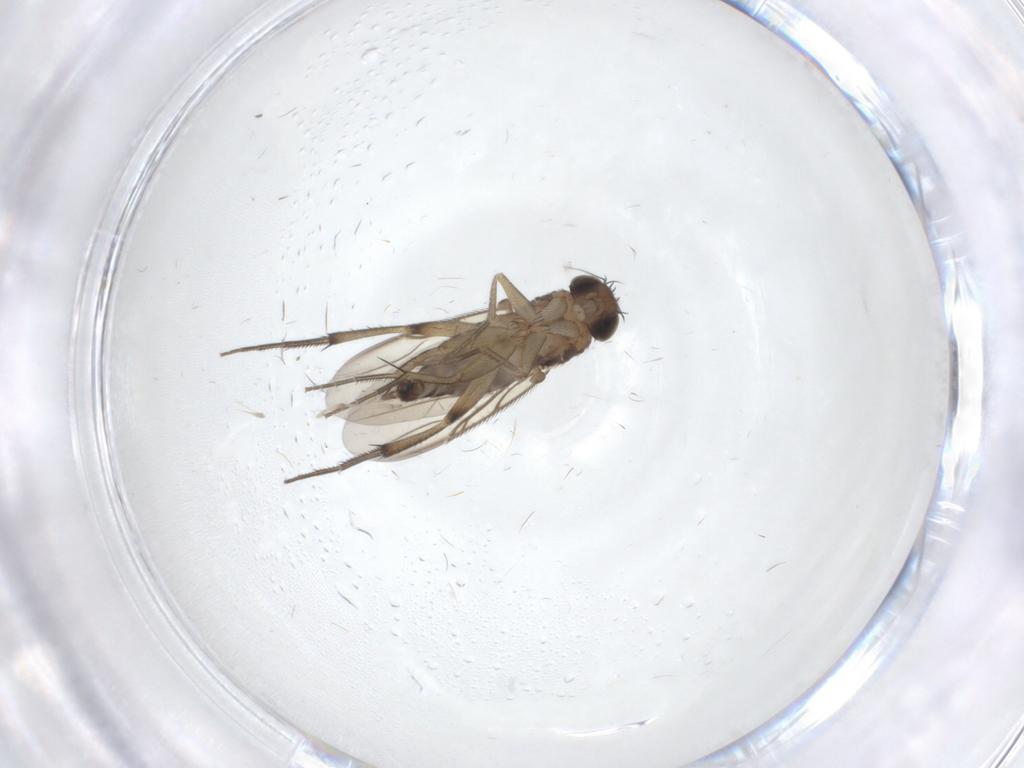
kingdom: Animalia
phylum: Arthropoda
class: Insecta
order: Diptera
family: Phoridae
